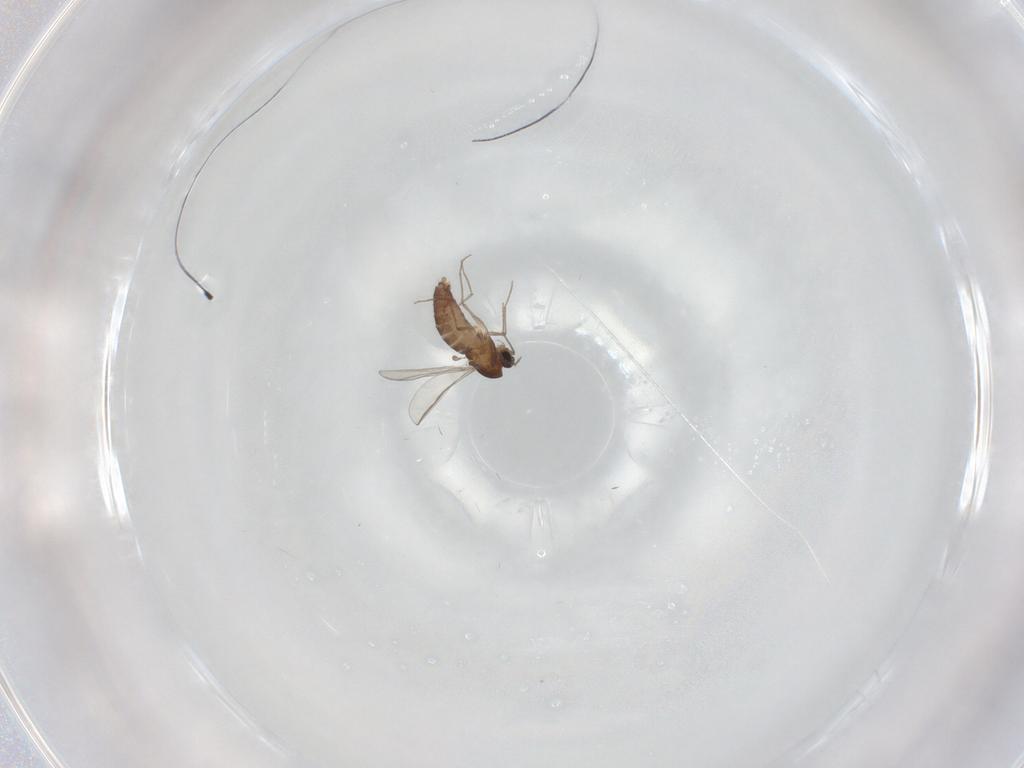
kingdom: Animalia
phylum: Arthropoda
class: Insecta
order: Diptera
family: Chironomidae
